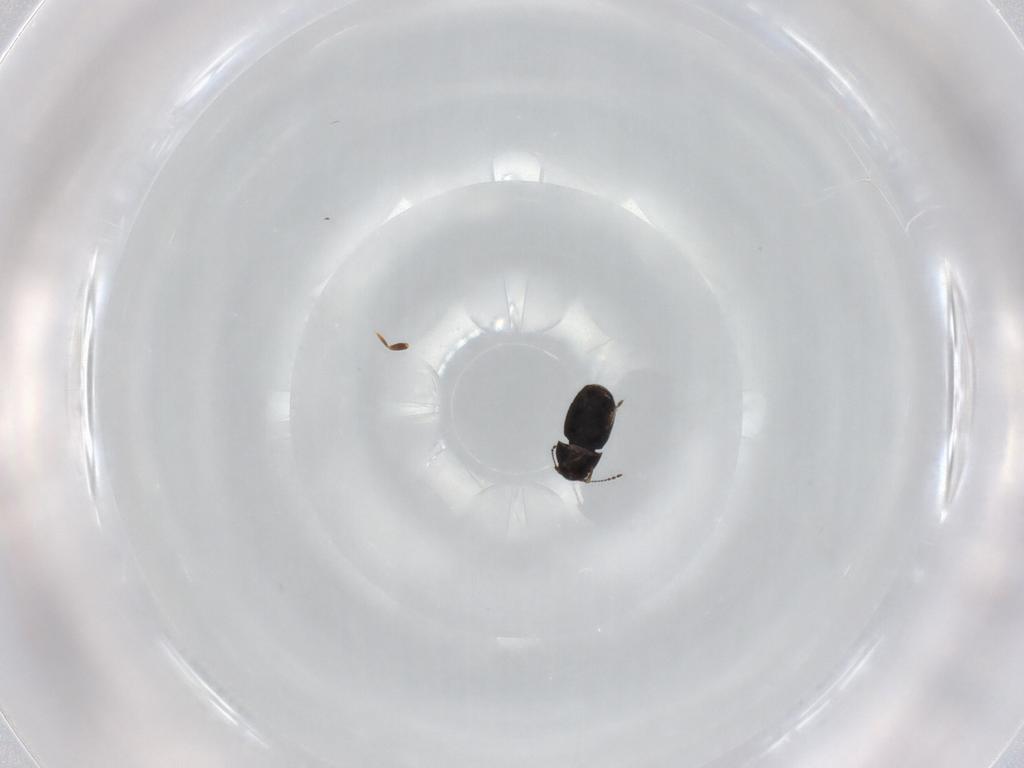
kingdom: Animalia
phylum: Arthropoda
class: Insecta
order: Coleoptera
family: Ptiliidae
